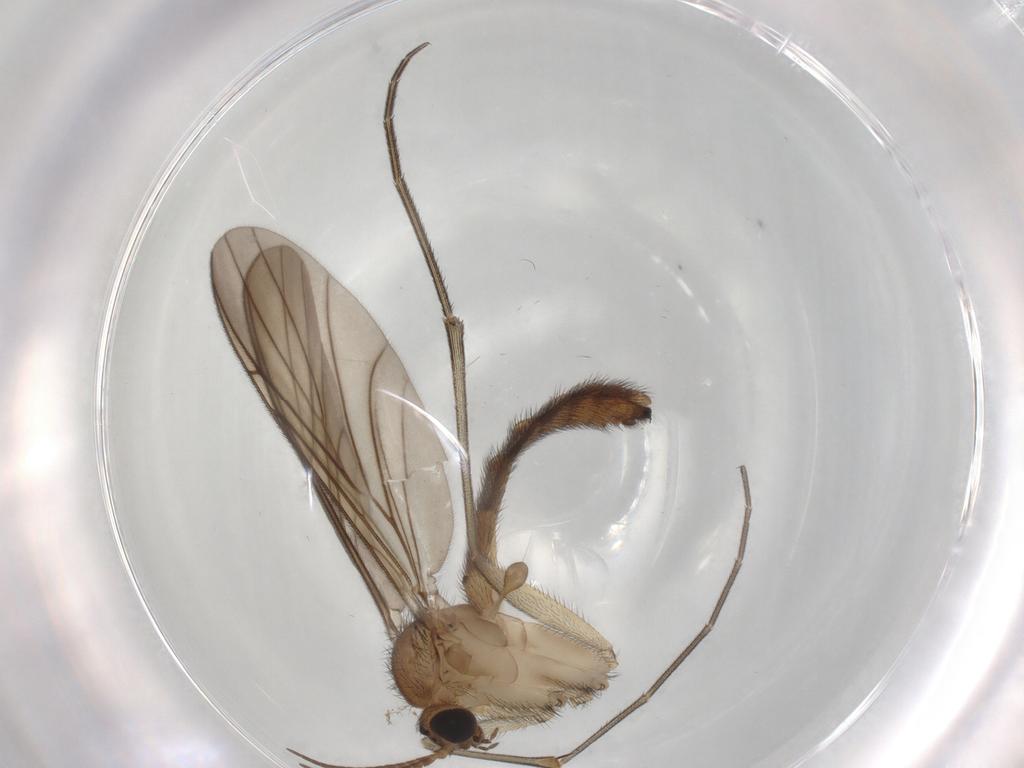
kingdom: Animalia
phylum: Arthropoda
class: Insecta
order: Diptera
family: Keroplatidae
